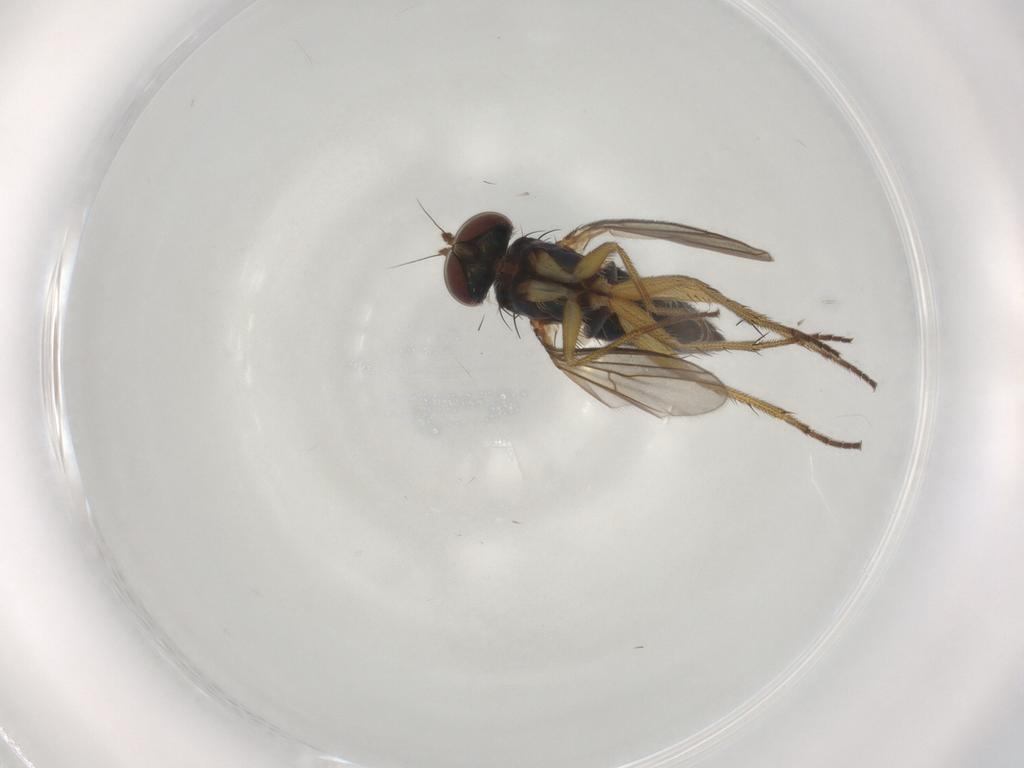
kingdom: Animalia
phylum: Arthropoda
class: Insecta
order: Diptera
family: Dolichopodidae
